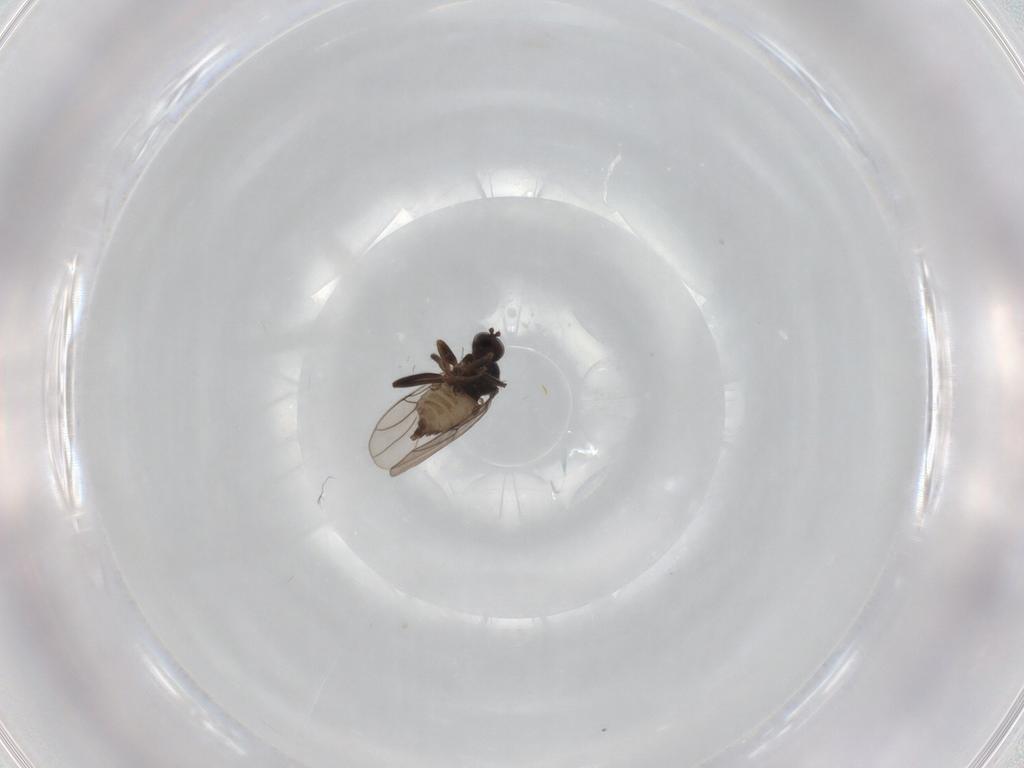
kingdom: Animalia
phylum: Arthropoda
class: Insecta
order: Diptera
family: Hybotidae
